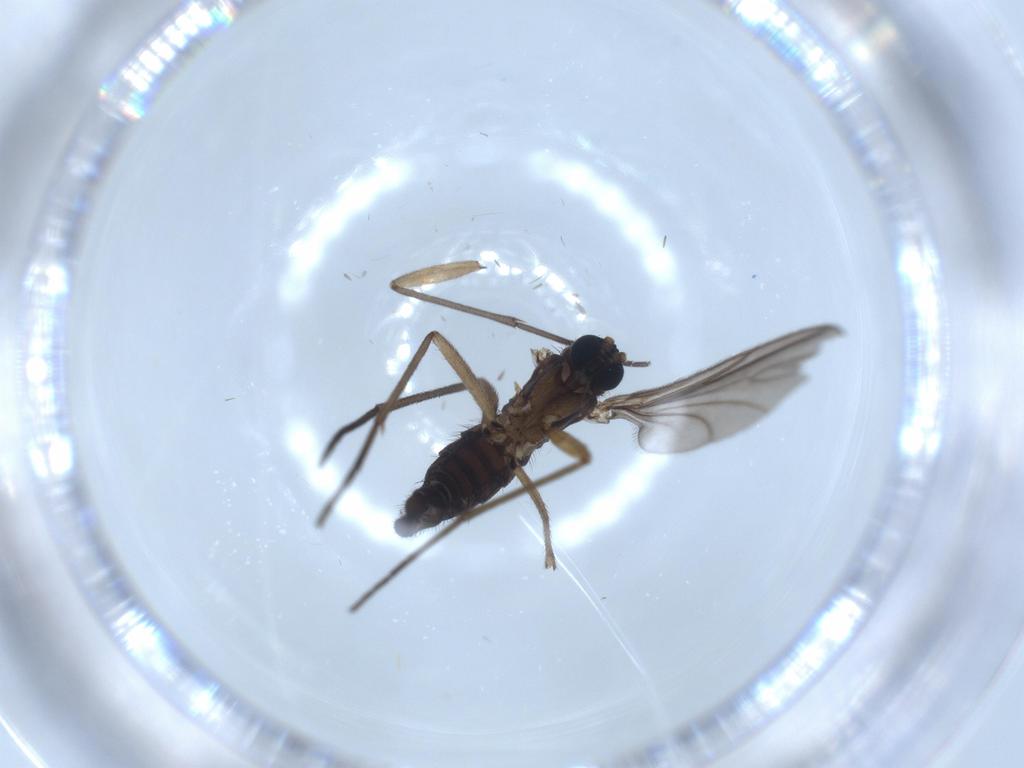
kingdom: Animalia
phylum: Arthropoda
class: Insecta
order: Diptera
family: Sciaridae
